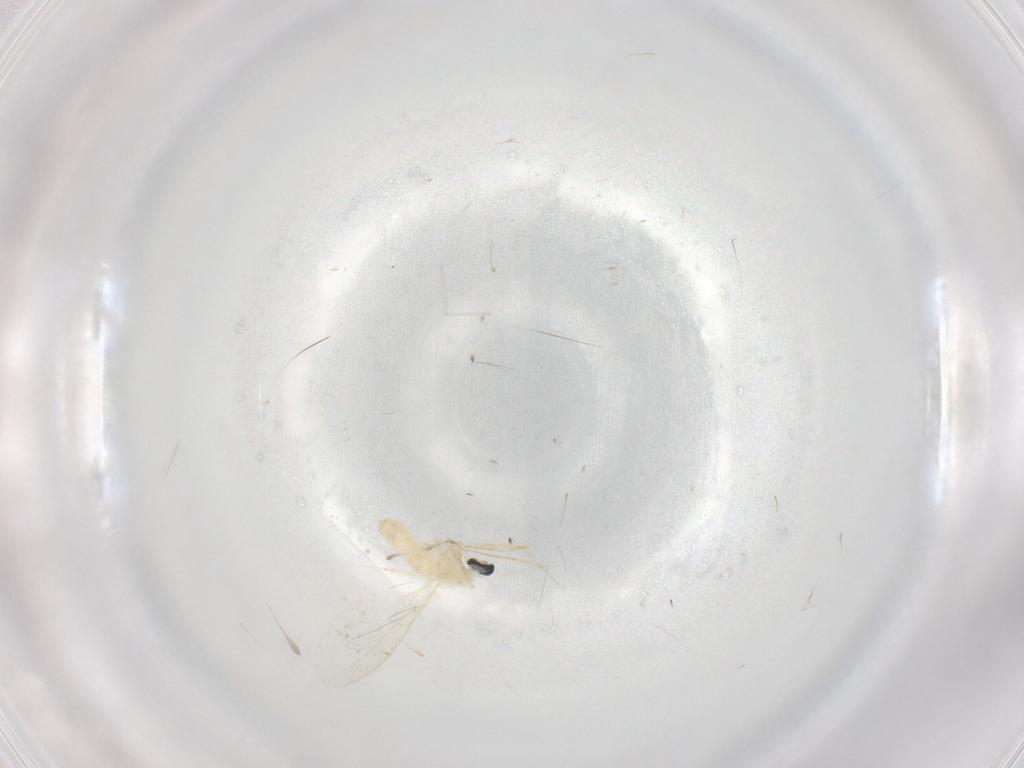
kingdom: Animalia
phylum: Arthropoda
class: Insecta
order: Diptera
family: Cecidomyiidae
